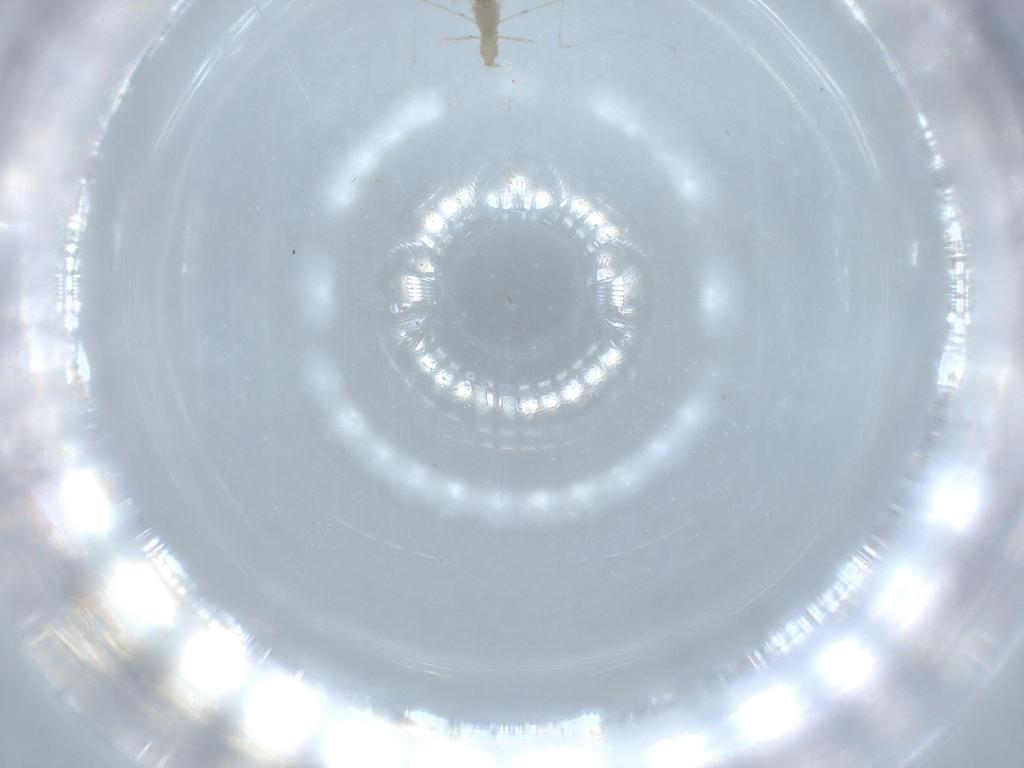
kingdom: Animalia
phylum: Arthropoda
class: Insecta
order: Diptera
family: Cecidomyiidae
